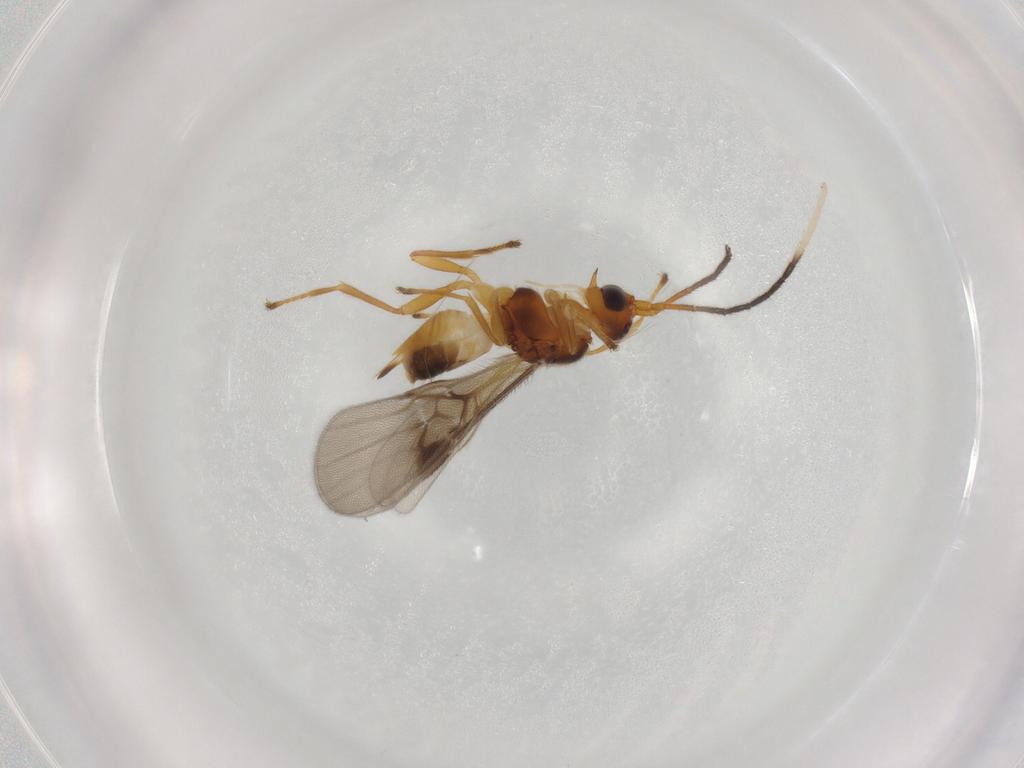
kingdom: Animalia
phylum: Arthropoda
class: Insecta
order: Hymenoptera
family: Braconidae
